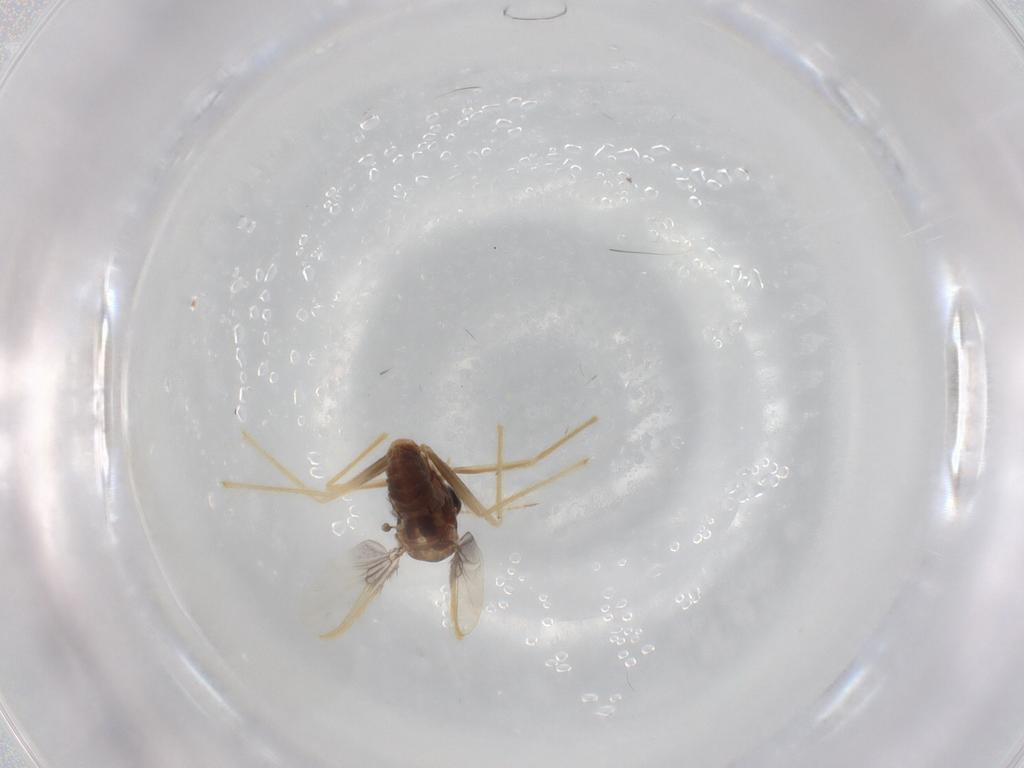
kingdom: Animalia
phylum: Arthropoda
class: Insecta
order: Diptera
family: Chironomidae
